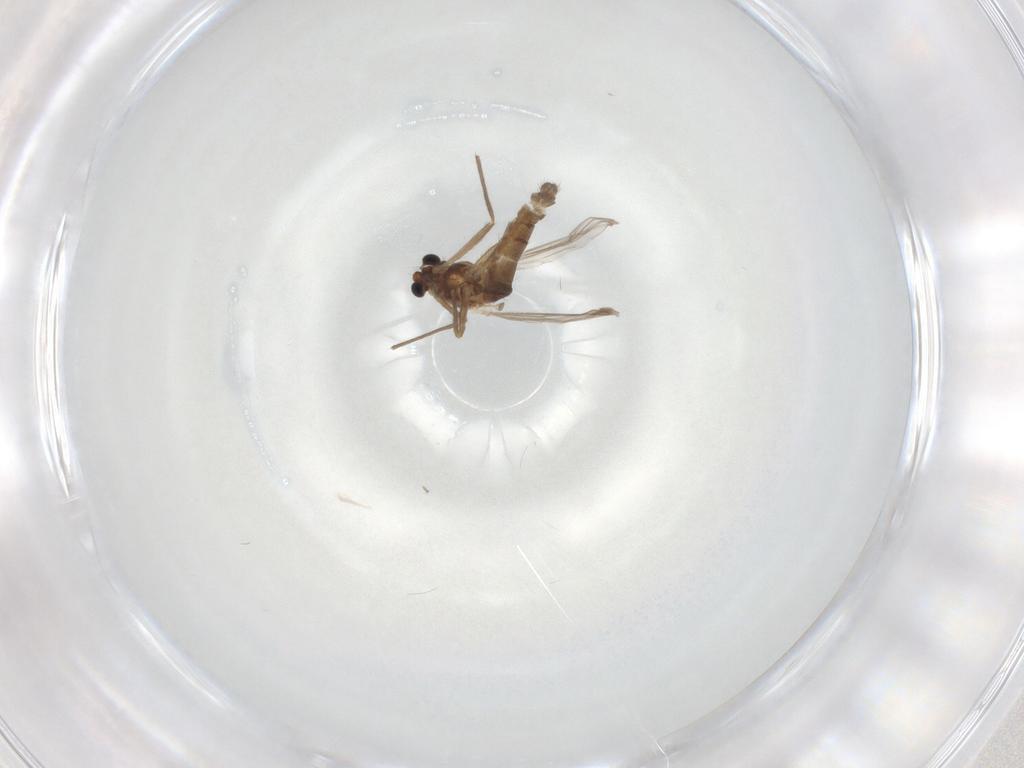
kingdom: Animalia
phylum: Arthropoda
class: Insecta
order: Diptera
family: Chironomidae
